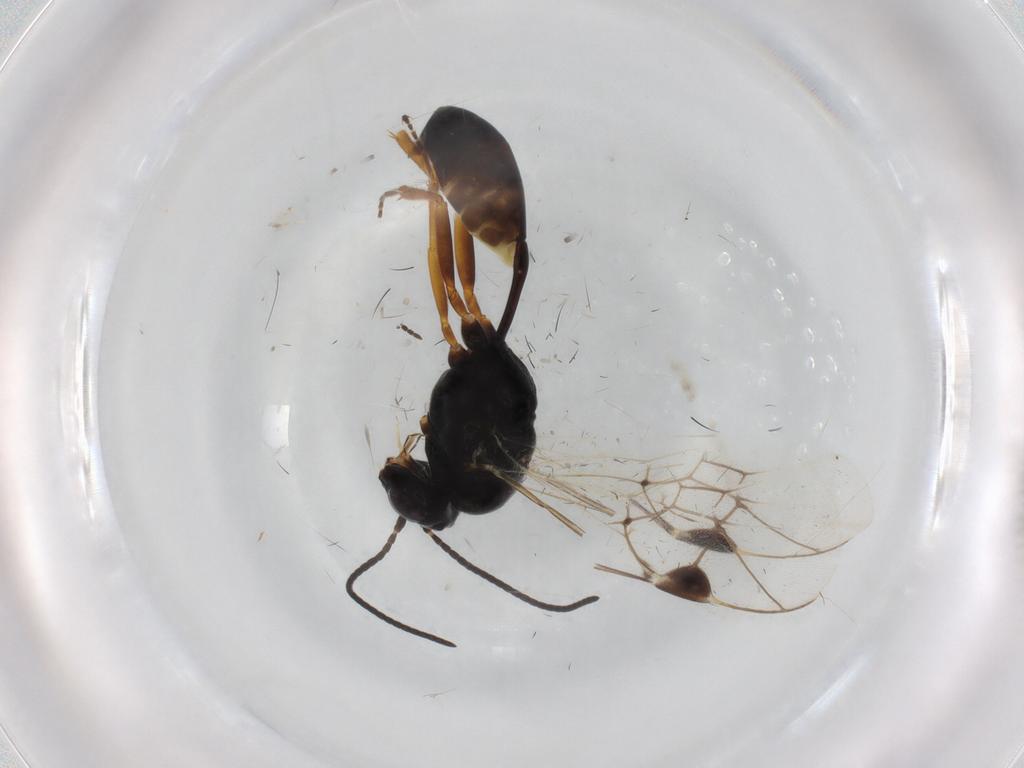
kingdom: Animalia
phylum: Arthropoda
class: Insecta
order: Hymenoptera
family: Ichneumonidae
